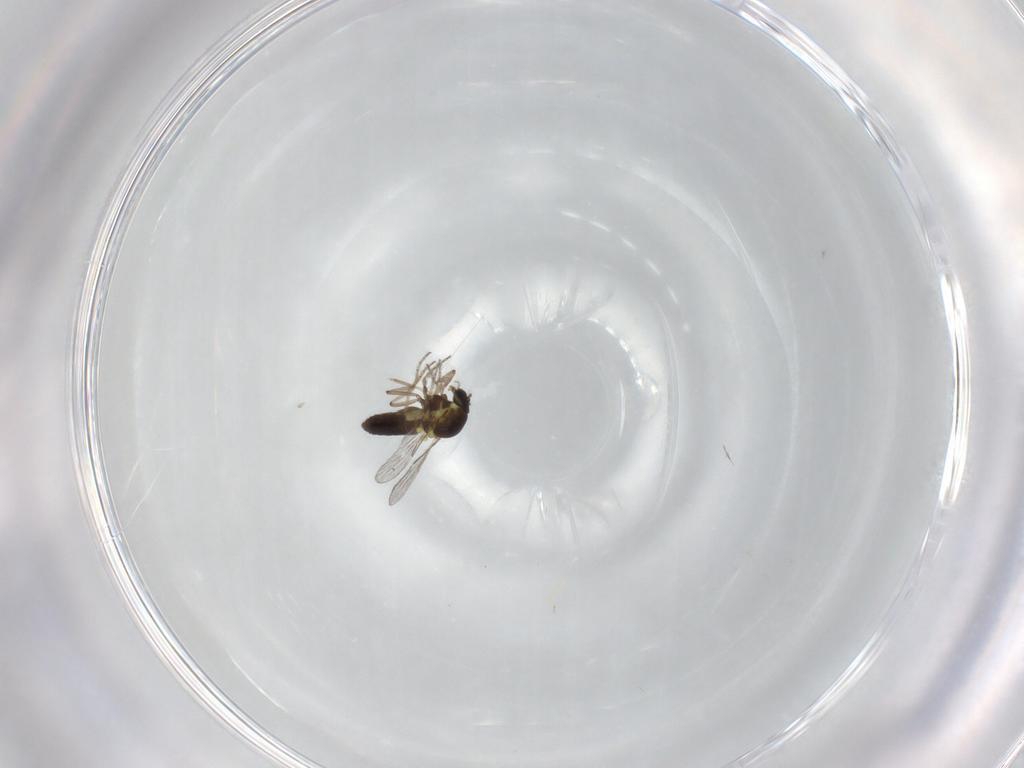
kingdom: Animalia
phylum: Arthropoda
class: Insecta
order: Diptera
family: Ceratopogonidae
